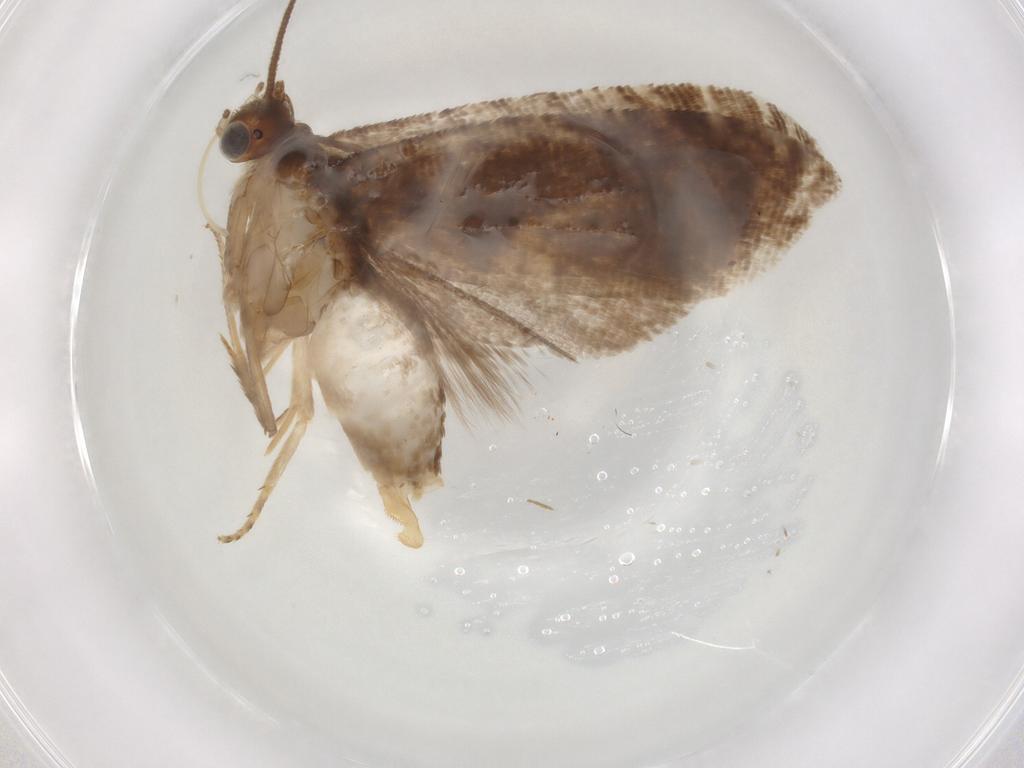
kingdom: Animalia
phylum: Arthropoda
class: Insecta
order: Lepidoptera
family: Tortricidae
